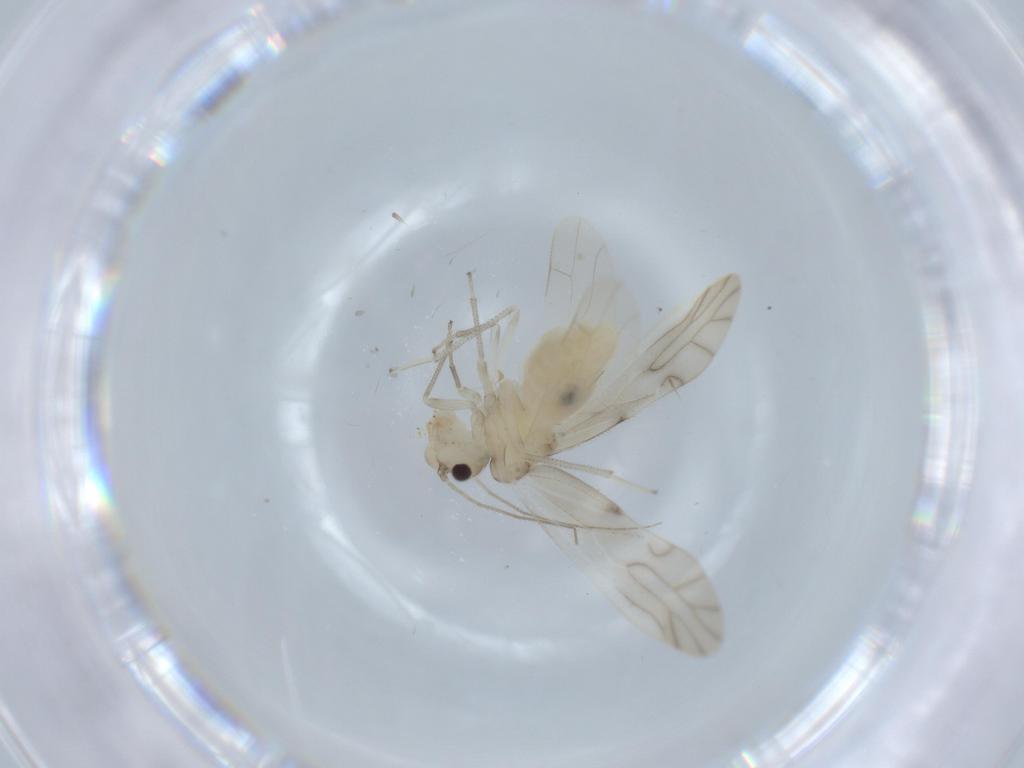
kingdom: Animalia
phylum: Arthropoda
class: Insecta
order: Psocodea
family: Caeciliusidae
